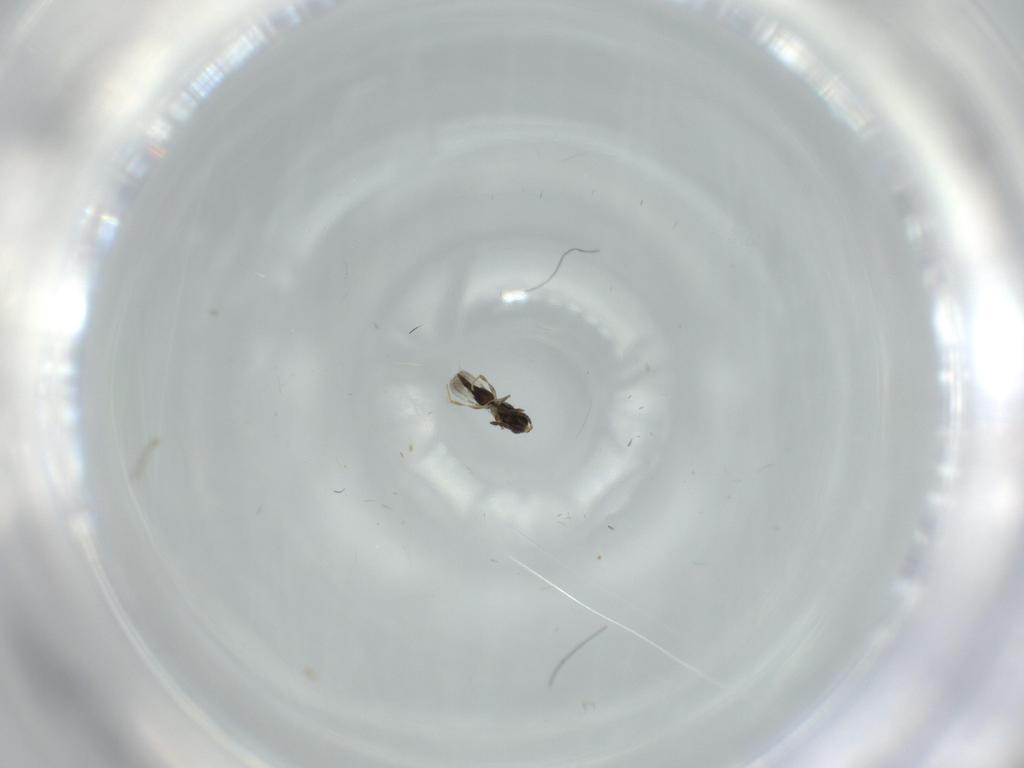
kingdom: Animalia
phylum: Arthropoda
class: Insecta
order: Hymenoptera
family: Ceraphronidae
